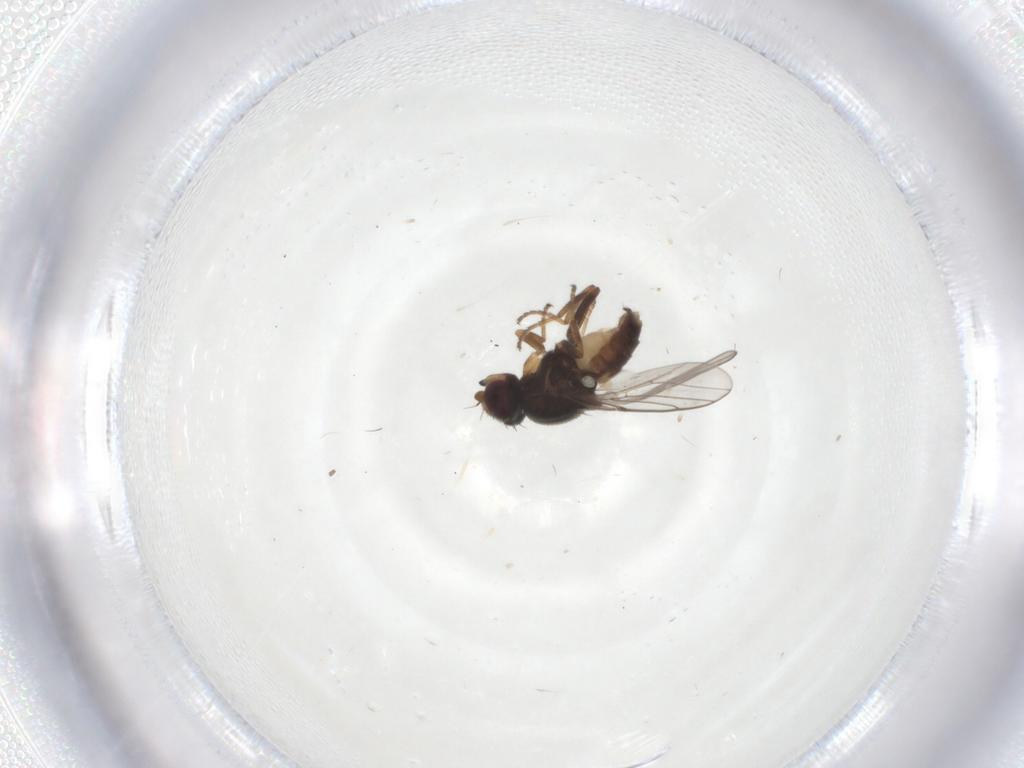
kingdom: Animalia
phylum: Arthropoda
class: Insecta
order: Diptera
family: Chloropidae
